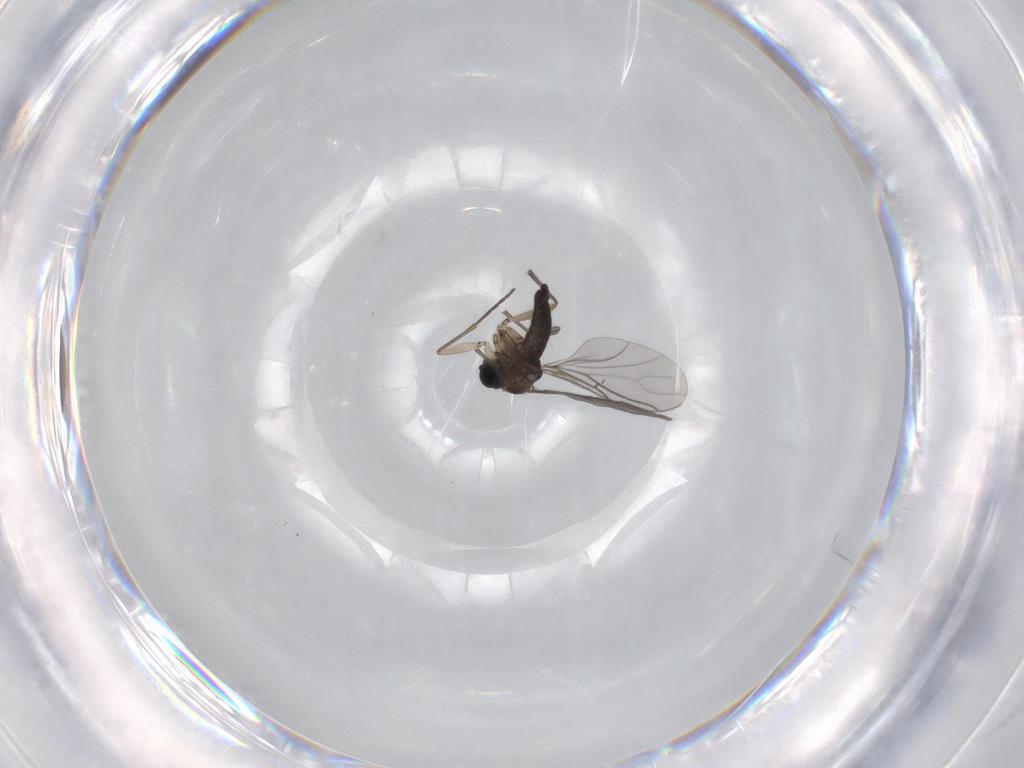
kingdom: Animalia
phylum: Arthropoda
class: Insecta
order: Diptera
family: Sciaridae
